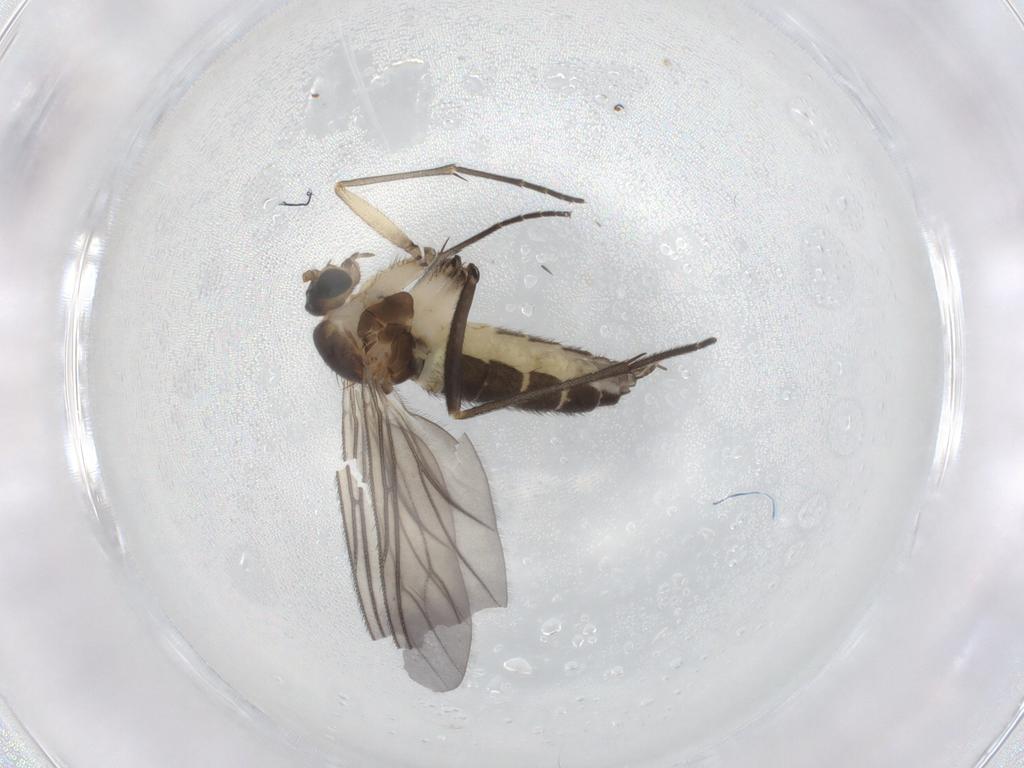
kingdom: Animalia
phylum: Arthropoda
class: Insecta
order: Diptera
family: Sciaridae
